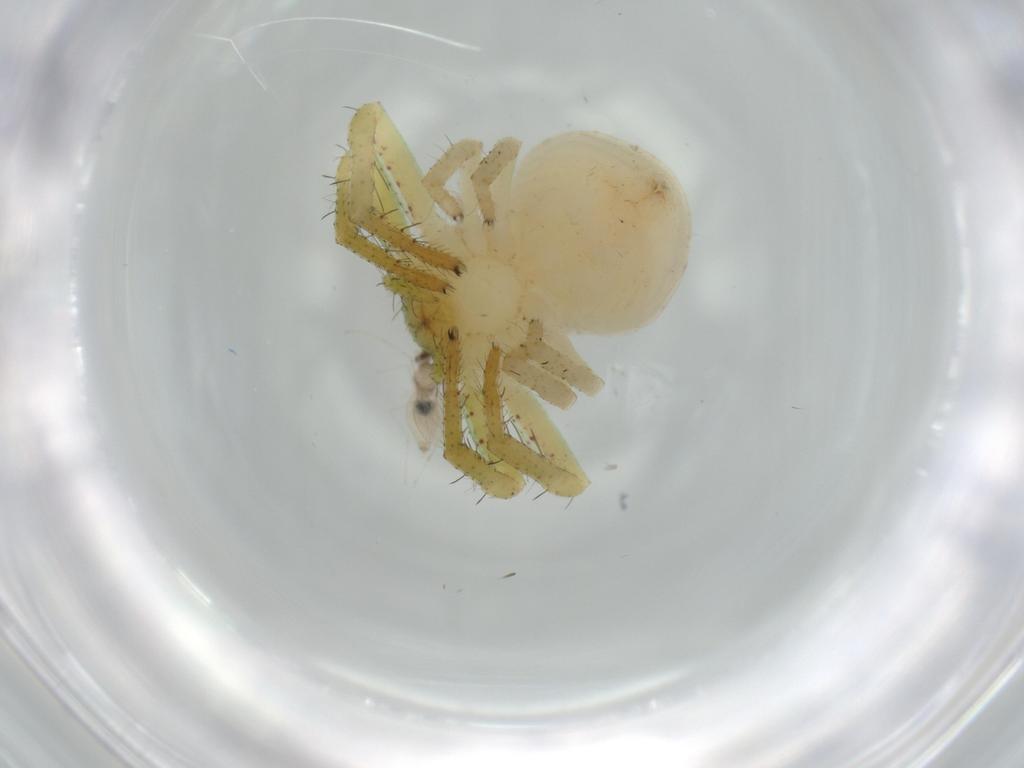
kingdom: Animalia
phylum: Arthropoda
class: Arachnida
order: Araneae
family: Thomisidae
